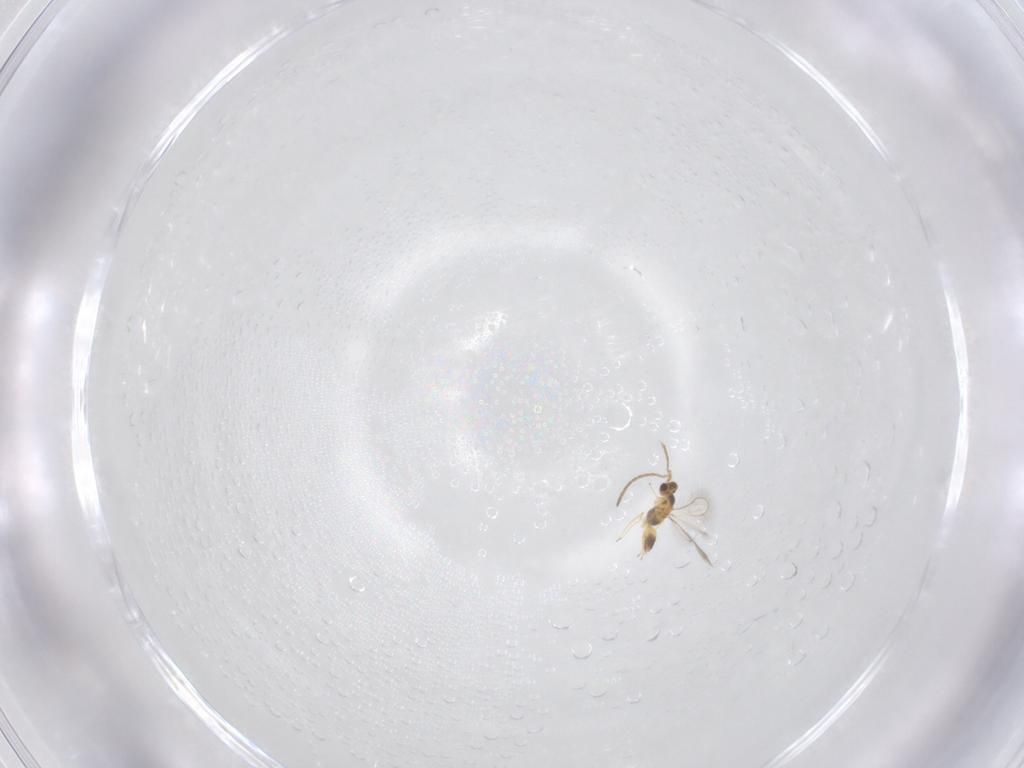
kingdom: Animalia
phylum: Arthropoda
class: Insecta
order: Hymenoptera
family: Mymaridae
